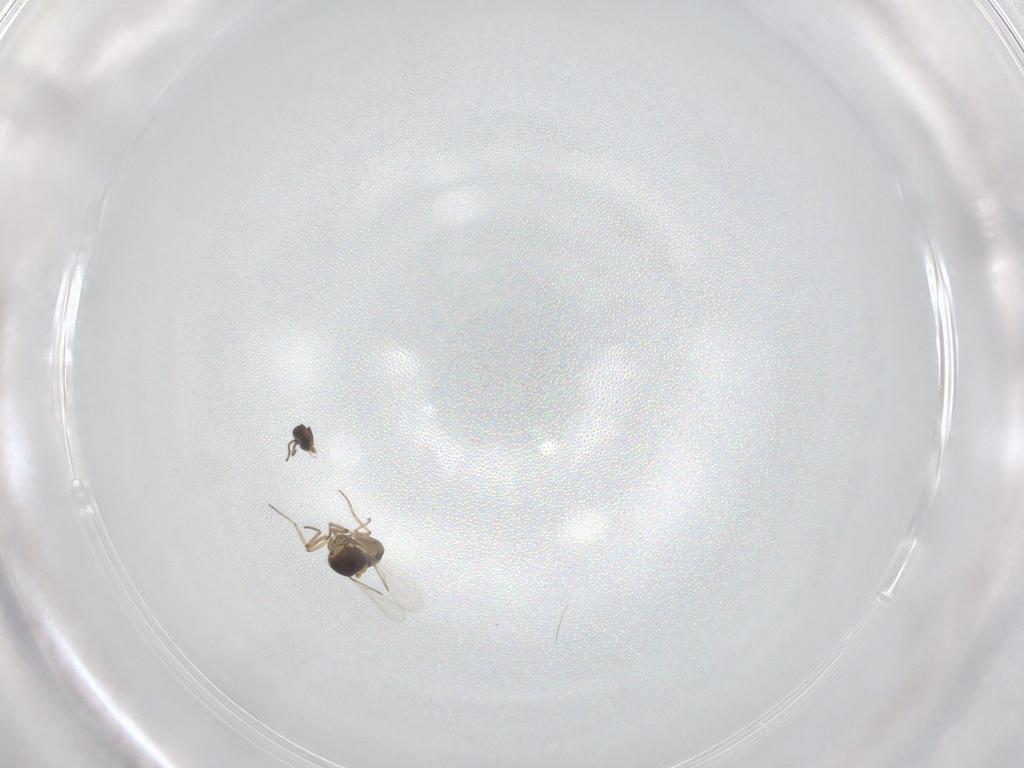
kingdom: Animalia
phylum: Arthropoda
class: Insecta
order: Diptera
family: Ceratopogonidae
